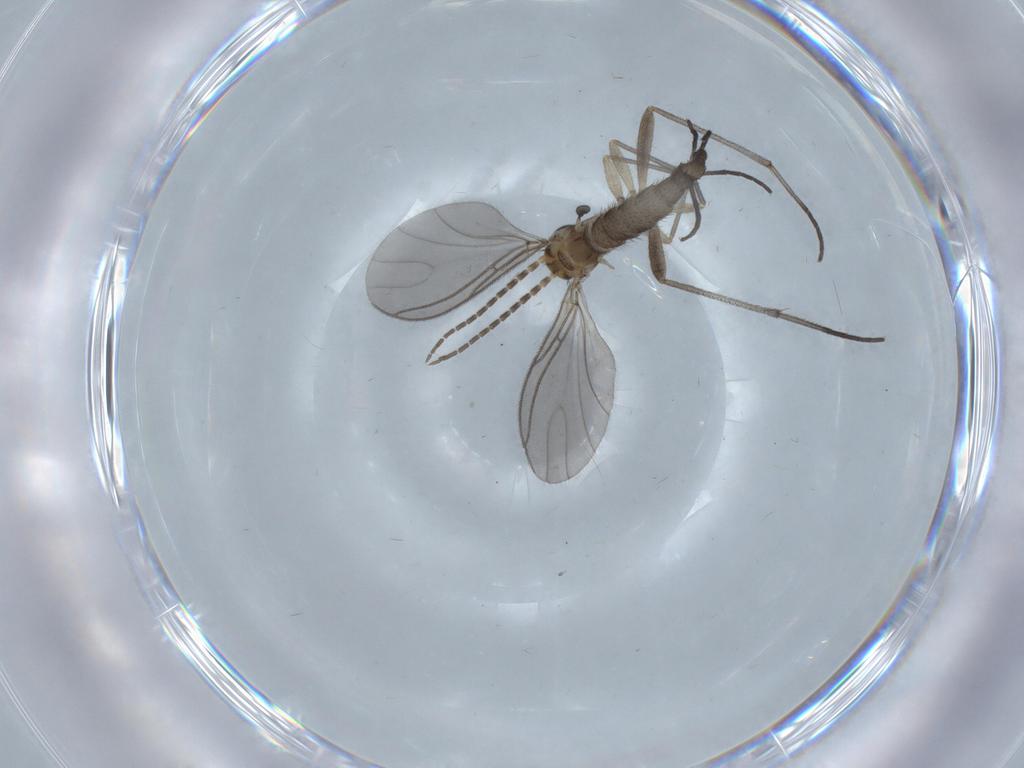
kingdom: Animalia
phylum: Arthropoda
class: Insecta
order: Diptera
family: Sciaridae
